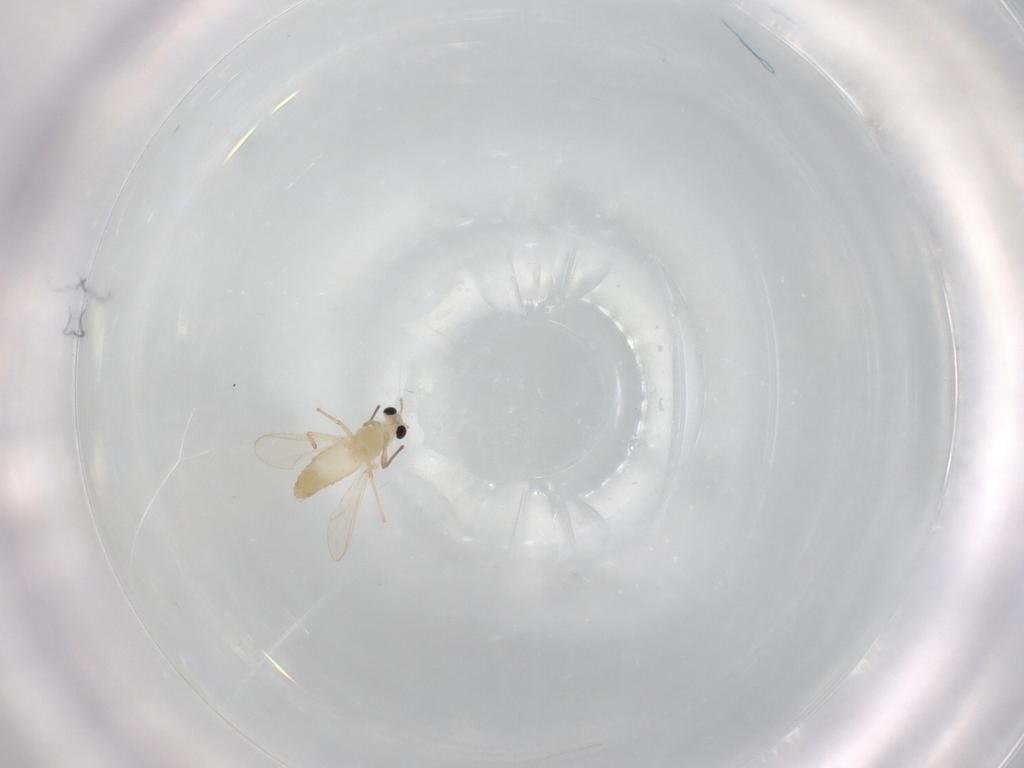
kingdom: Animalia
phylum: Arthropoda
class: Insecta
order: Diptera
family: Chironomidae
